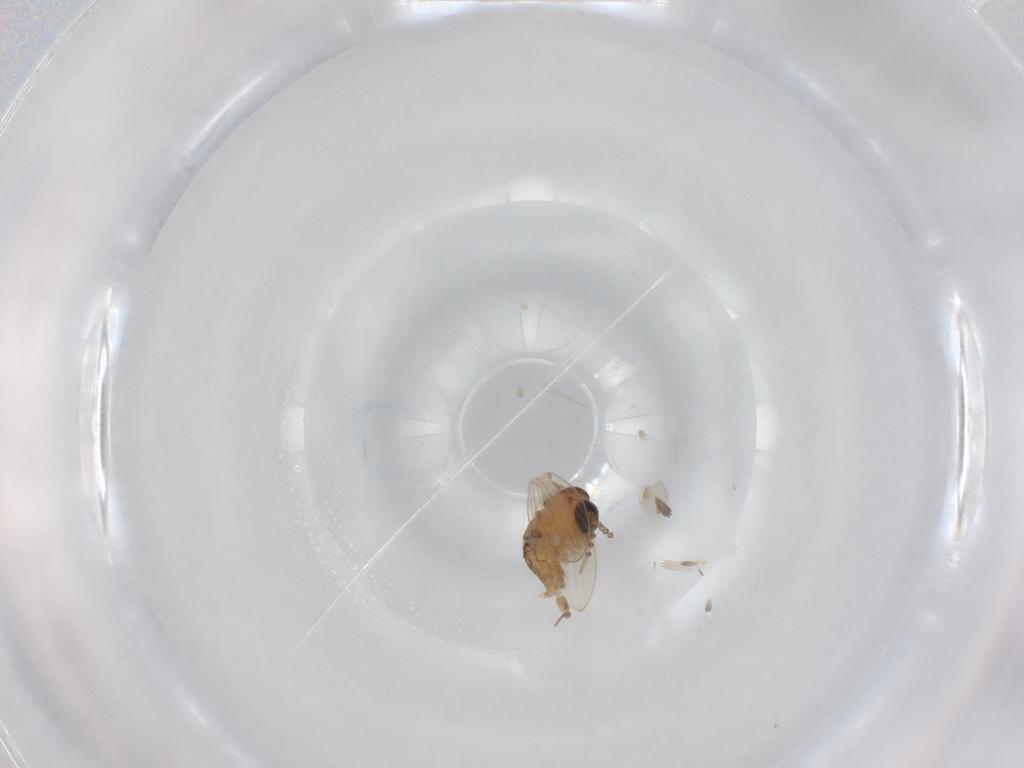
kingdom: Animalia
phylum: Arthropoda
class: Insecta
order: Diptera
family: Psychodidae
